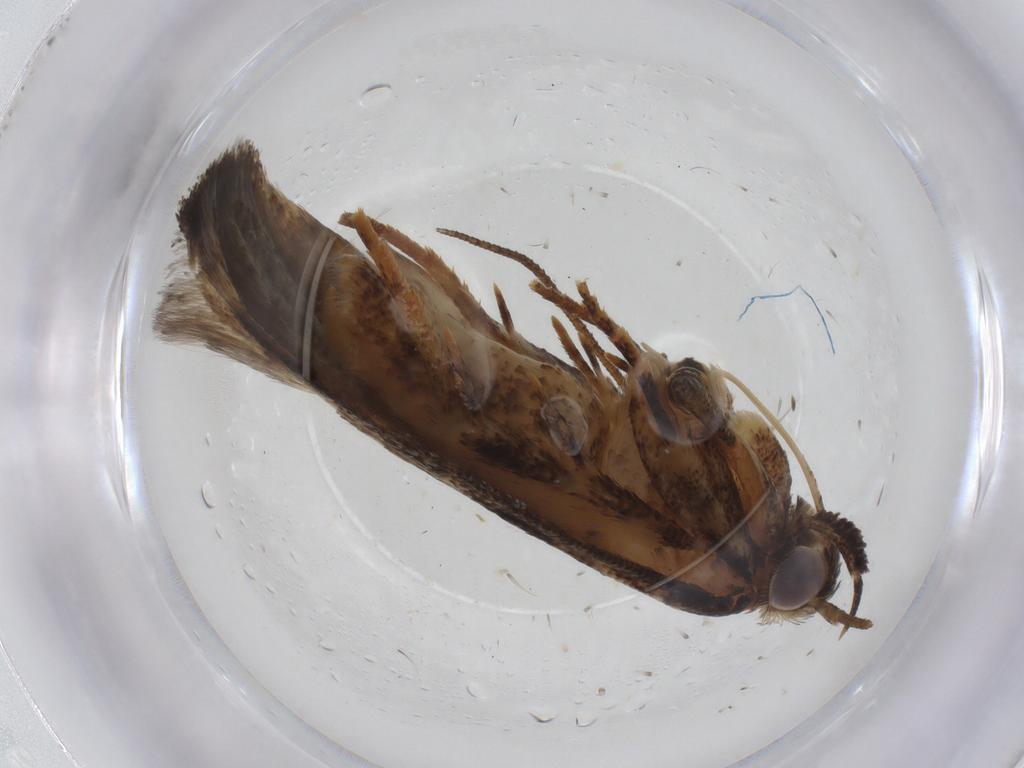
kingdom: Animalia
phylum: Arthropoda
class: Insecta
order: Lepidoptera
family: Gelechiidae
